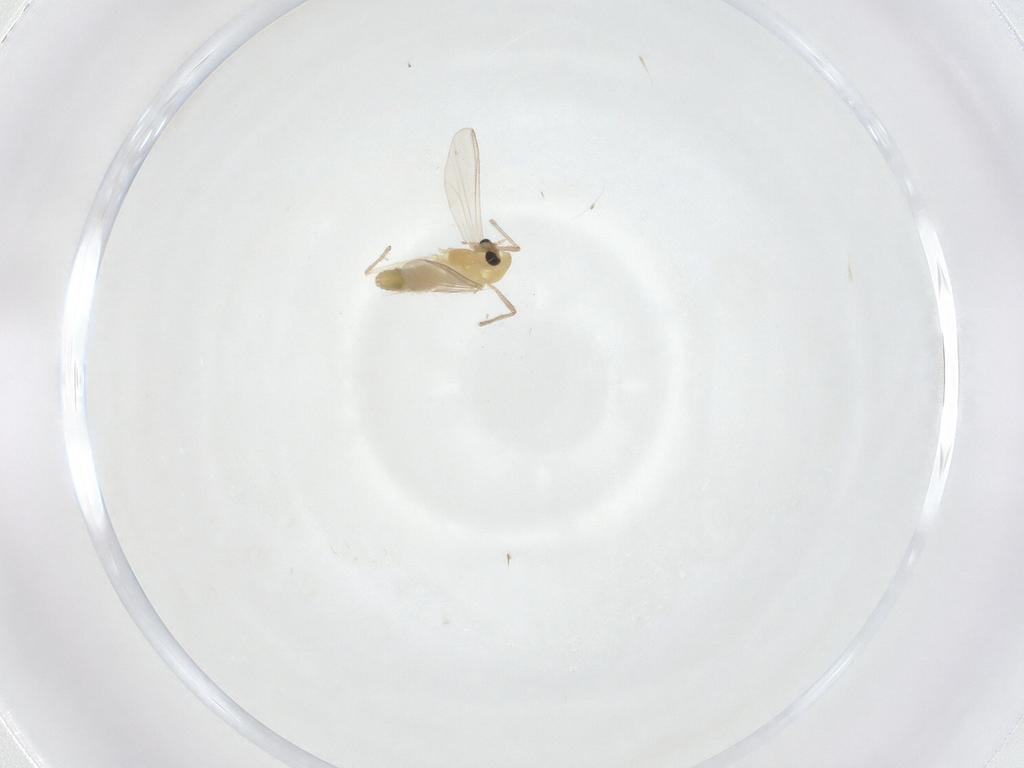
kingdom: Animalia
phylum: Arthropoda
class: Insecta
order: Diptera
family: Chironomidae
